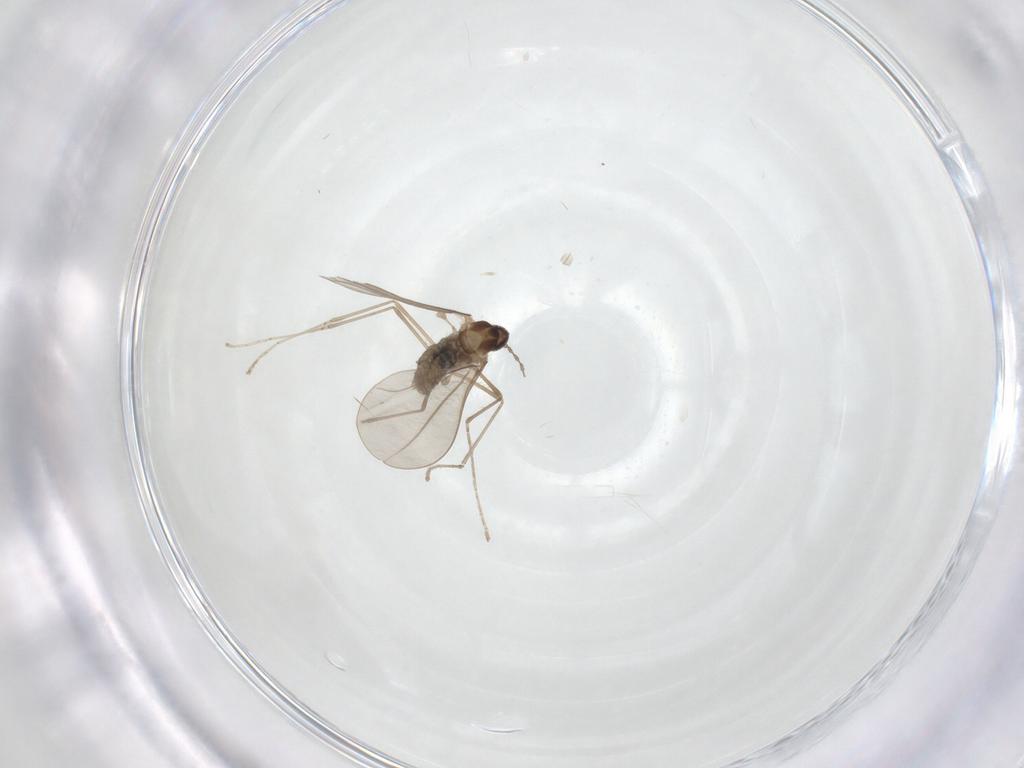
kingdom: Animalia
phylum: Arthropoda
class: Insecta
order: Diptera
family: Cecidomyiidae
